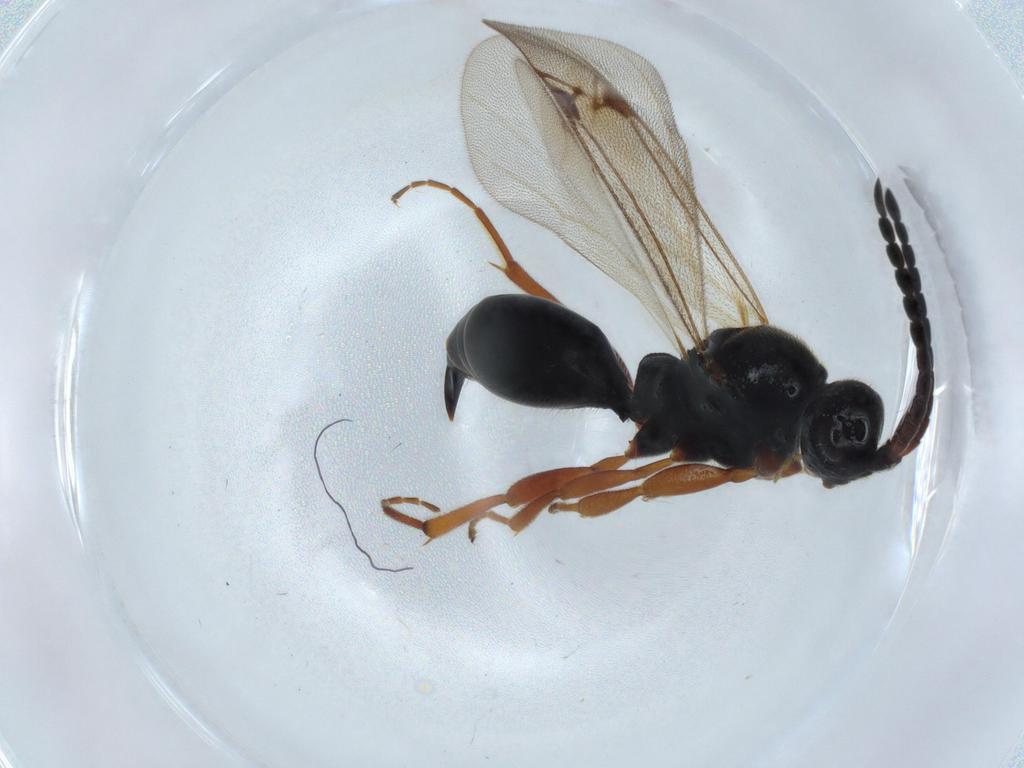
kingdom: Animalia
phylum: Arthropoda
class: Insecta
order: Hymenoptera
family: Proctotrupidae
